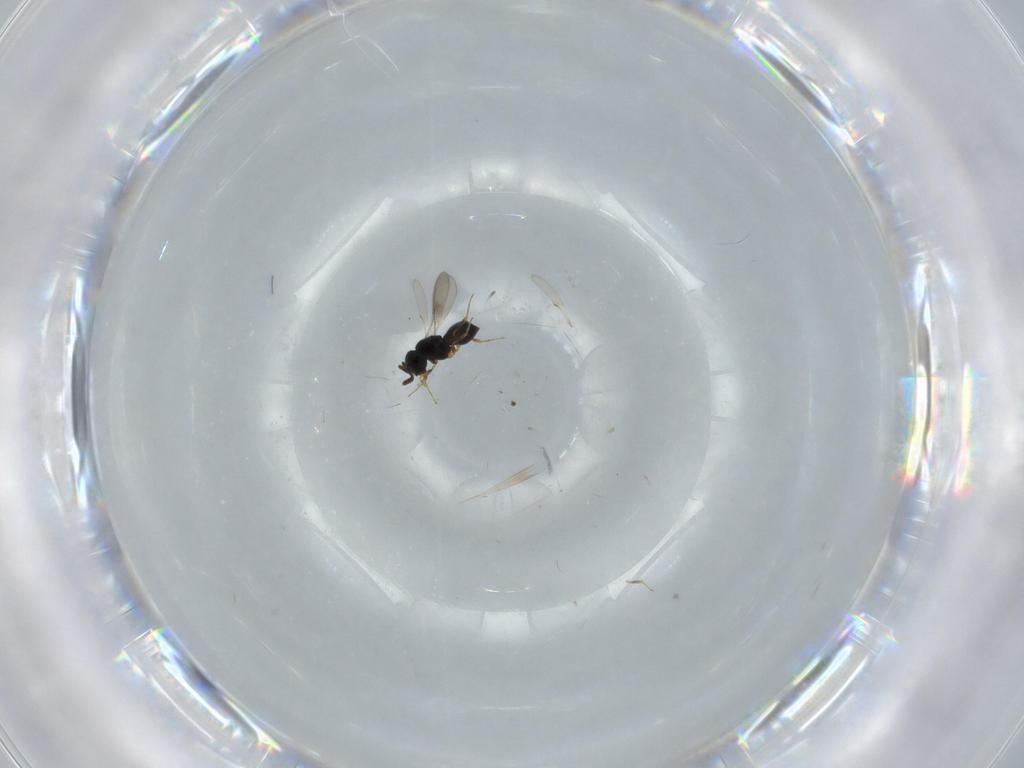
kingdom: Animalia
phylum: Arthropoda
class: Insecta
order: Hymenoptera
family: Scelionidae
